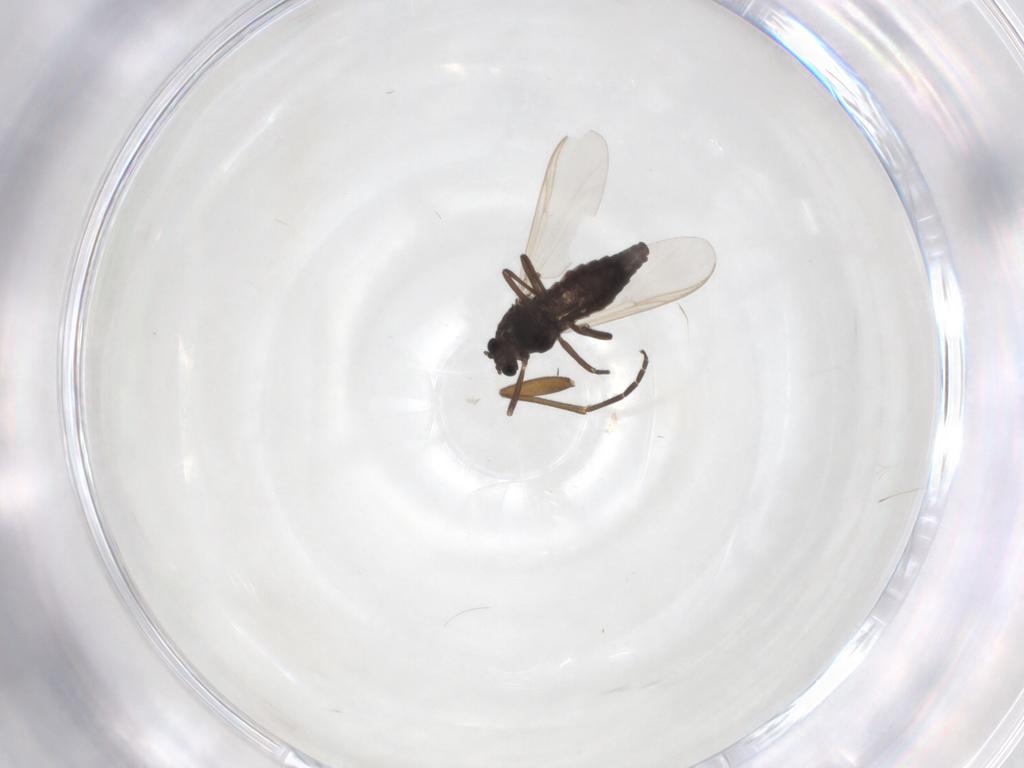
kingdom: Animalia
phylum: Arthropoda
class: Insecta
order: Diptera
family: Chironomidae
